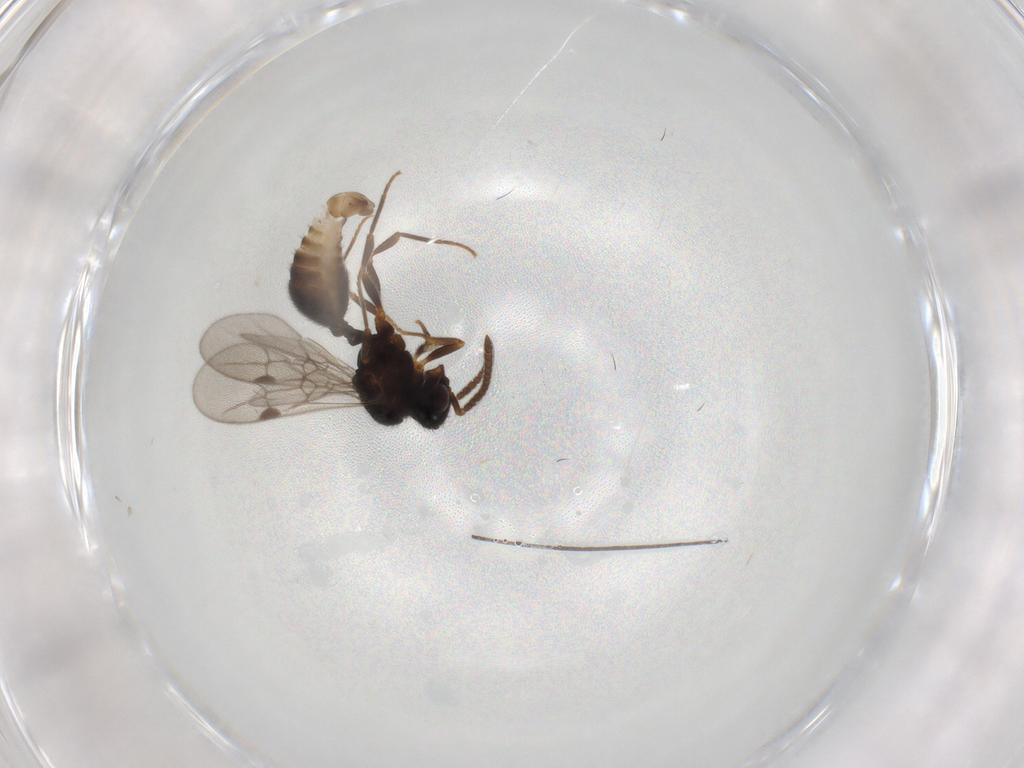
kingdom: Animalia
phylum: Arthropoda
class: Insecta
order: Hymenoptera
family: Formicidae
